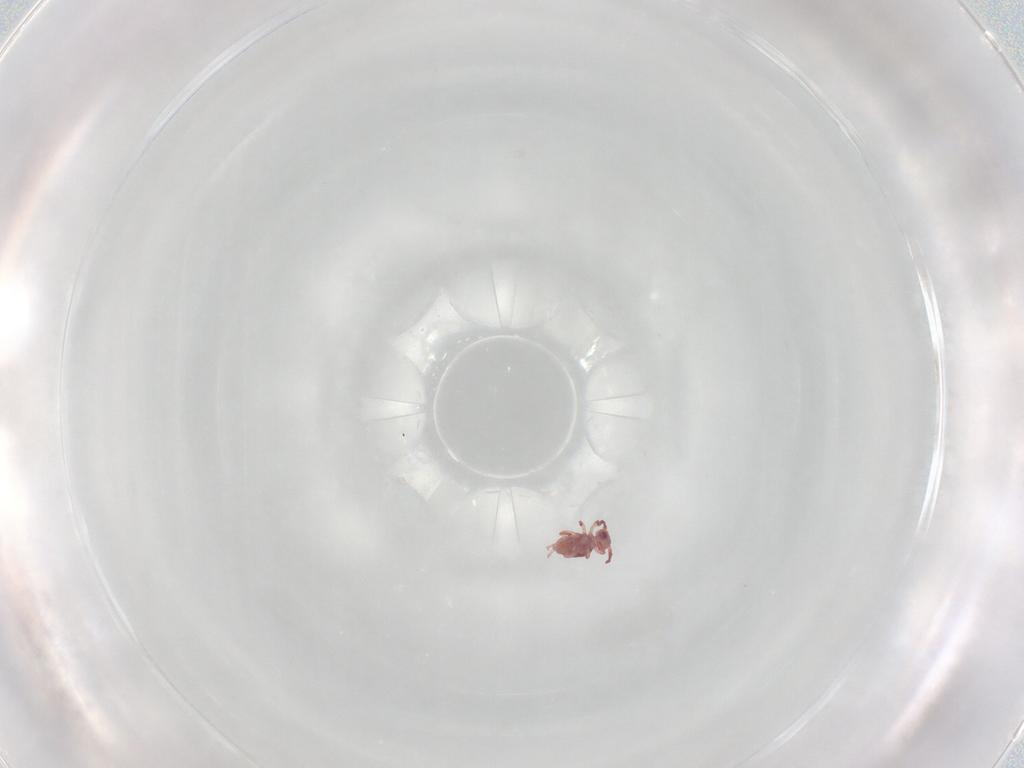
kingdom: Animalia
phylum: Arthropoda
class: Collembola
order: Symphypleona
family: Sminthurididae
